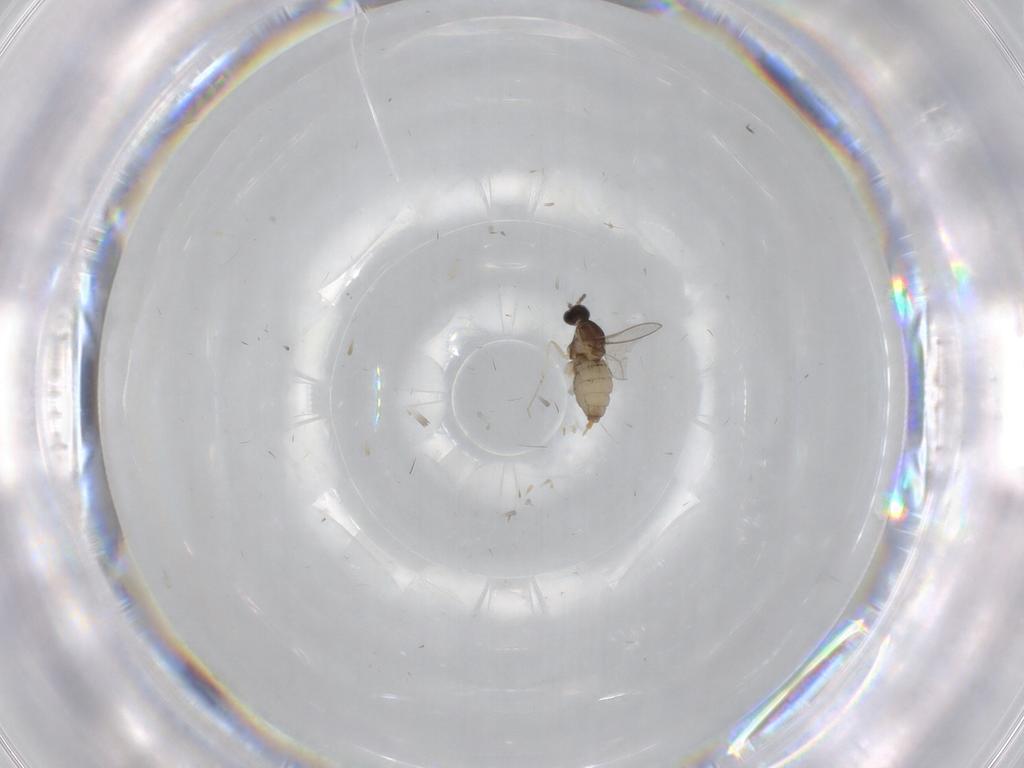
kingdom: Animalia
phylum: Arthropoda
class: Insecta
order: Diptera
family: Cecidomyiidae
